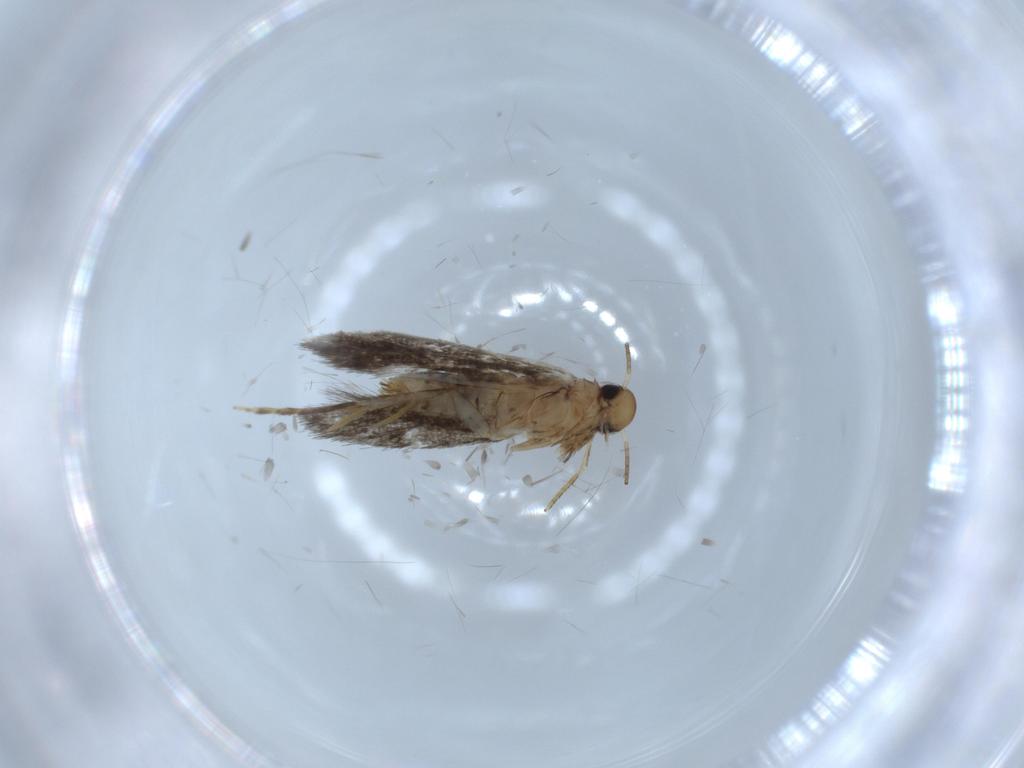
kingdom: Animalia
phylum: Arthropoda
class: Insecta
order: Lepidoptera
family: Heliozelidae
